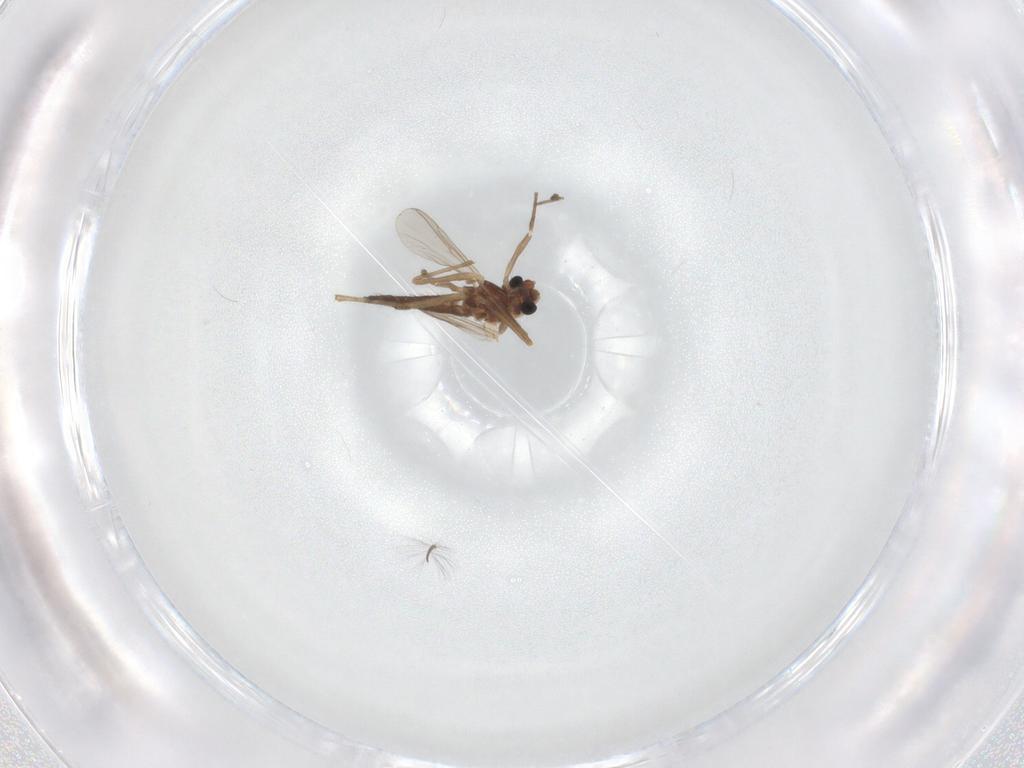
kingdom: Animalia
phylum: Arthropoda
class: Insecta
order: Diptera
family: Chironomidae
